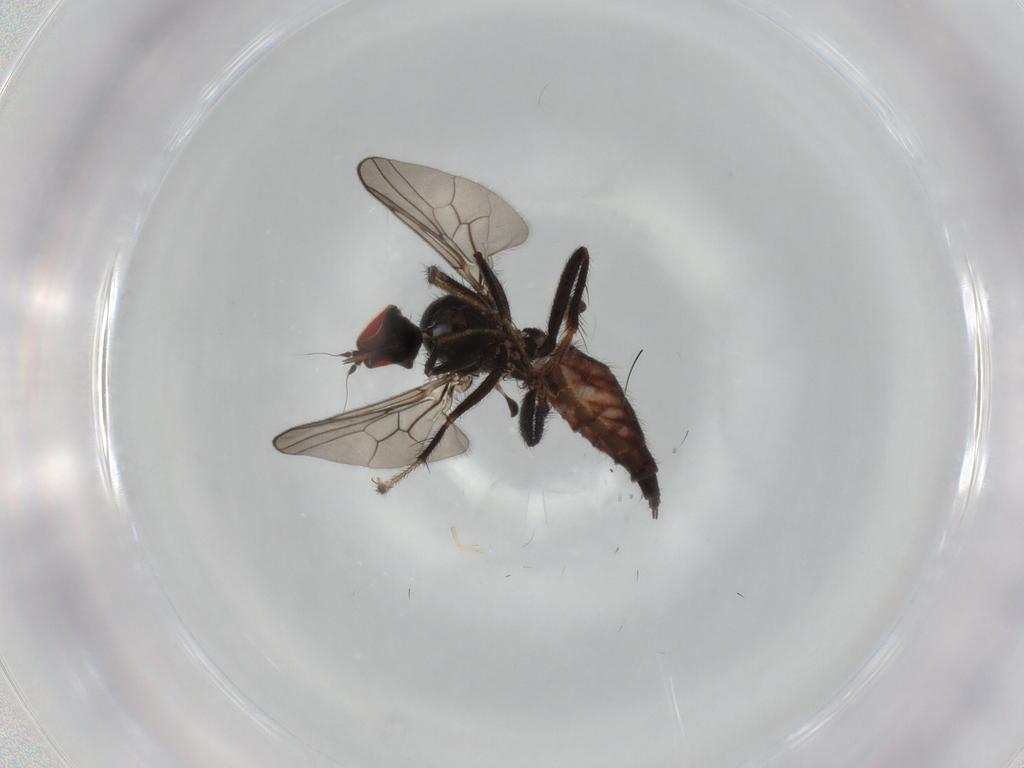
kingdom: Animalia
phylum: Arthropoda
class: Insecta
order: Diptera
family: Hybotidae
